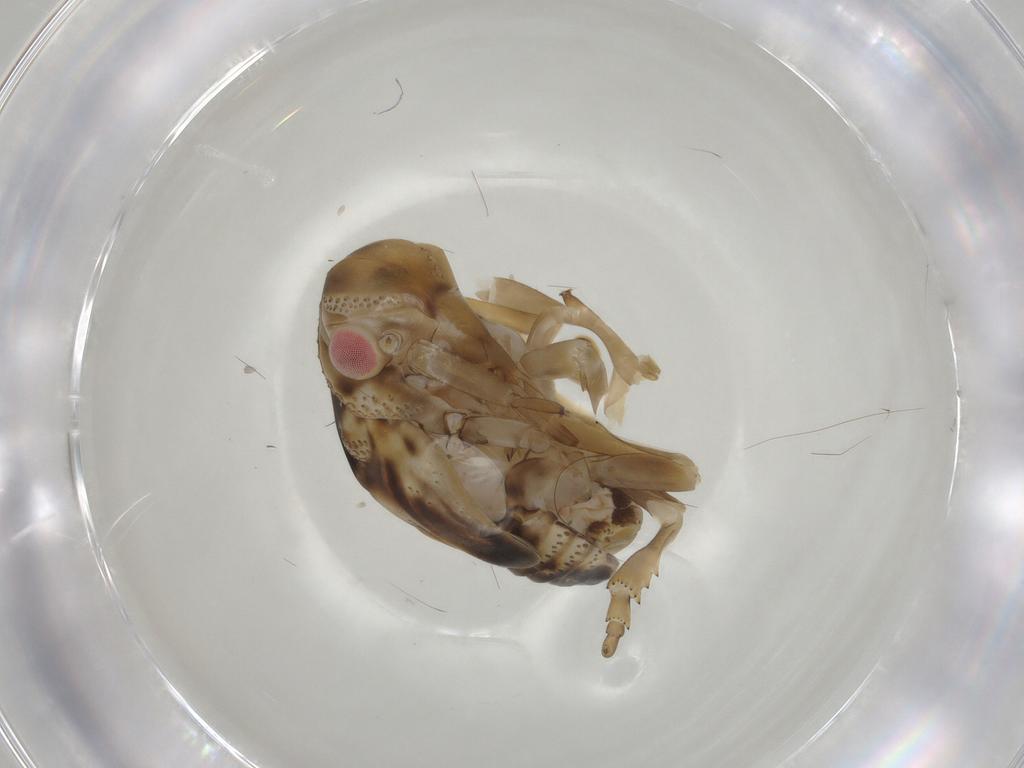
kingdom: Animalia
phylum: Arthropoda
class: Insecta
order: Hemiptera
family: Flatidae
